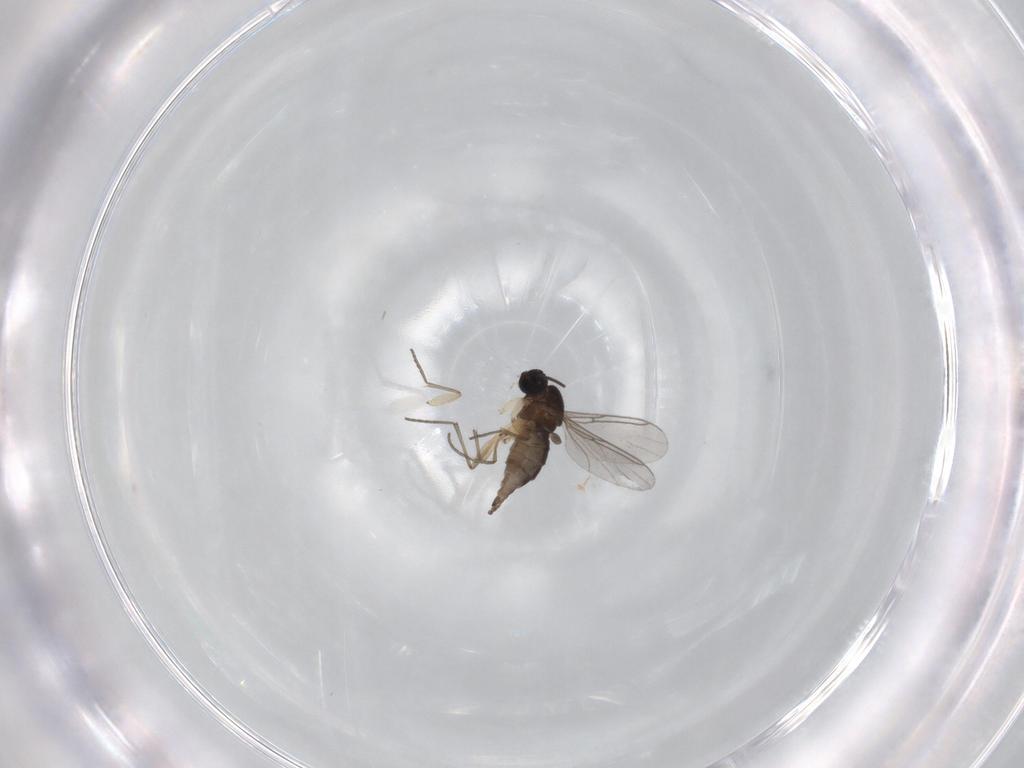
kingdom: Animalia
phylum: Arthropoda
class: Insecta
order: Diptera
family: Sciaridae
